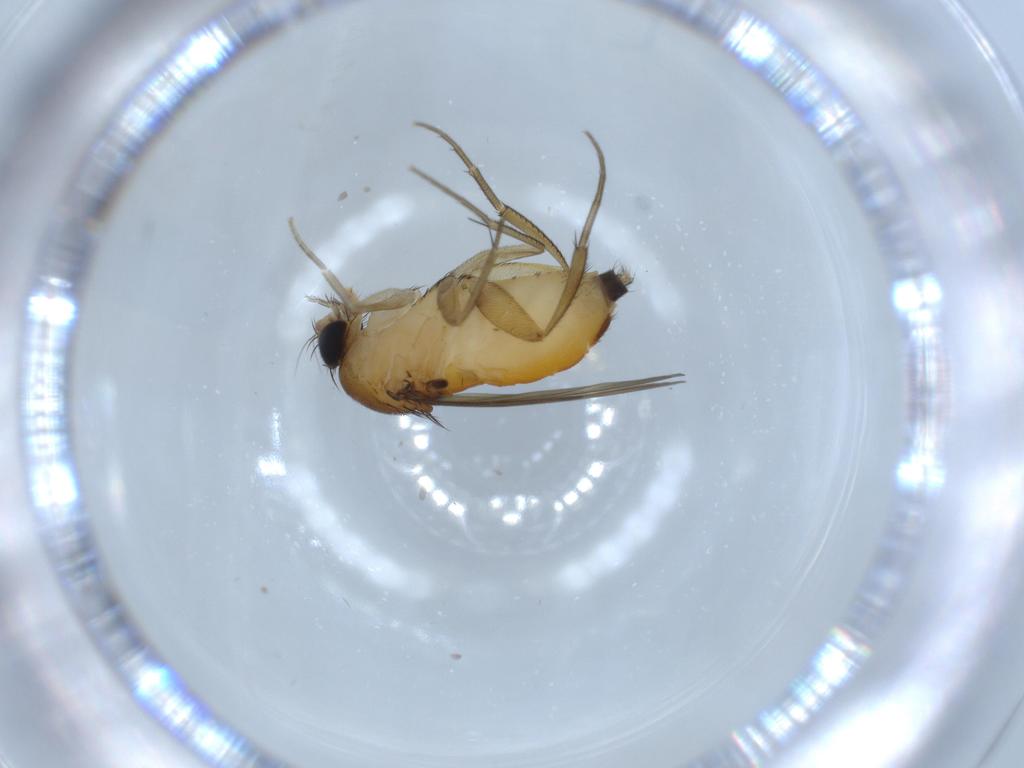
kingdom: Animalia
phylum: Arthropoda
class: Insecta
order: Diptera
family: Phoridae
